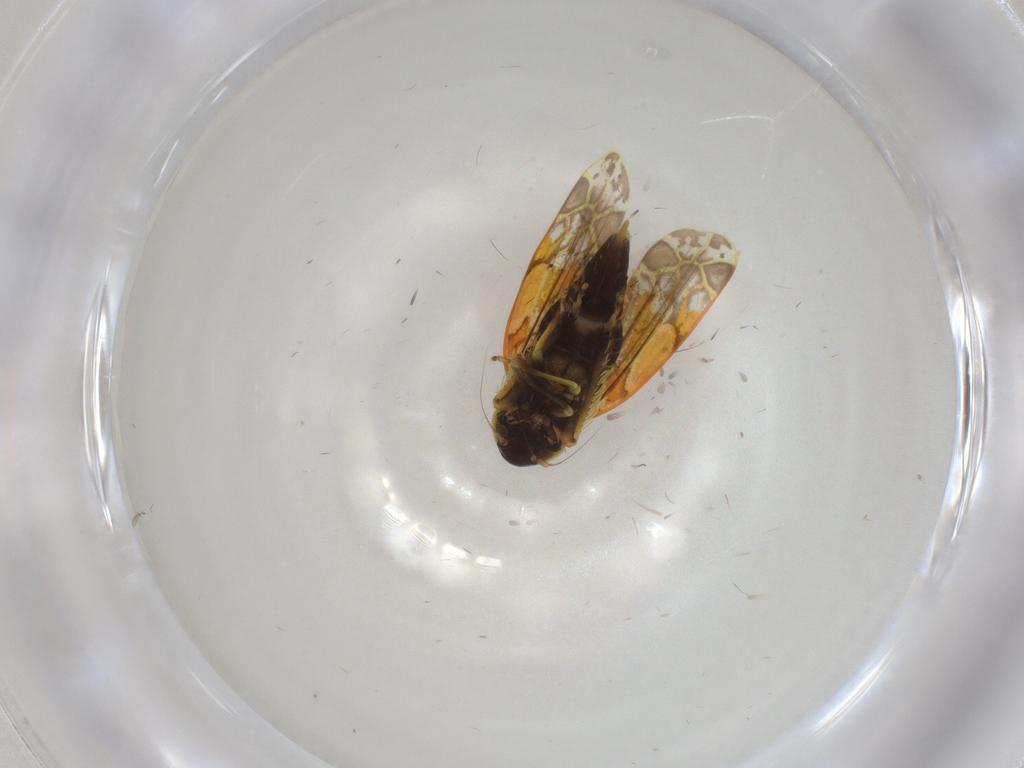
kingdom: Animalia
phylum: Arthropoda
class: Insecta
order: Hemiptera
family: Cicadellidae
